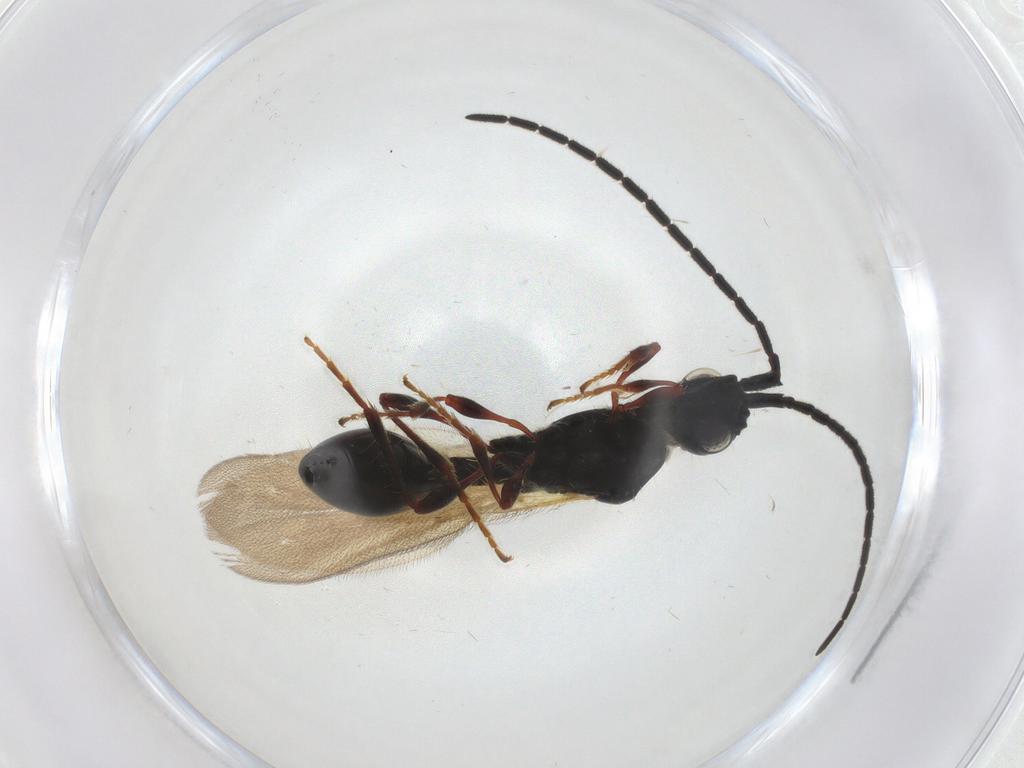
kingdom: Animalia
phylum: Arthropoda
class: Insecta
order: Hymenoptera
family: Diapriidae
